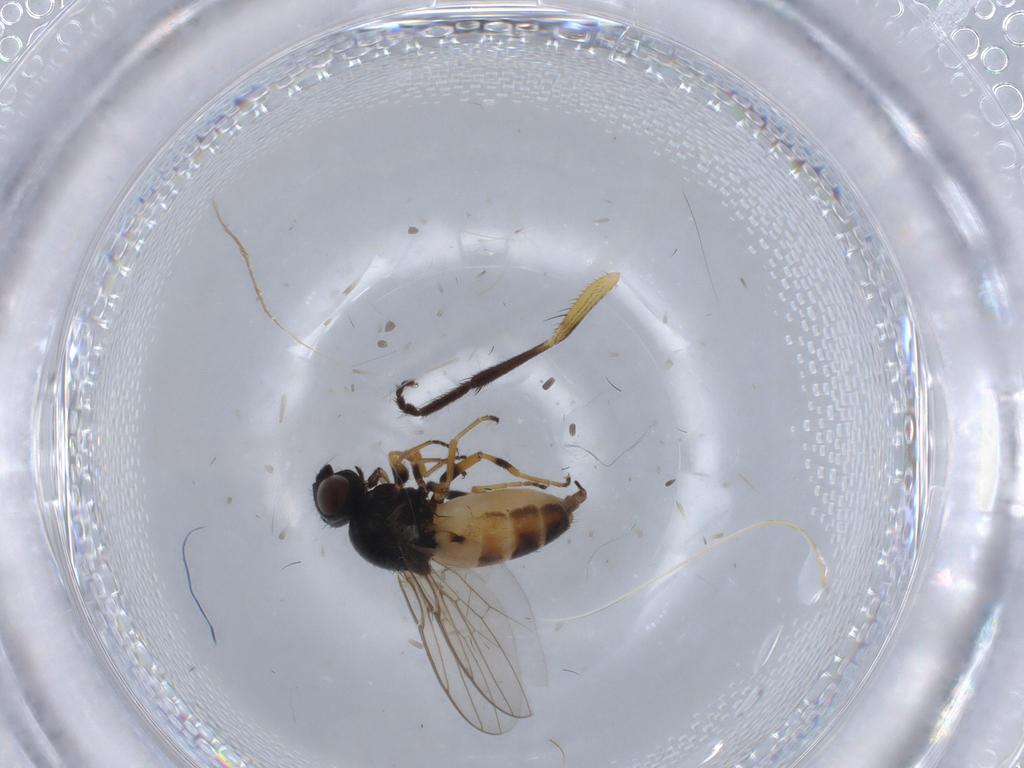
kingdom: Animalia
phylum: Arthropoda
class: Insecta
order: Diptera
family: Chloropidae
